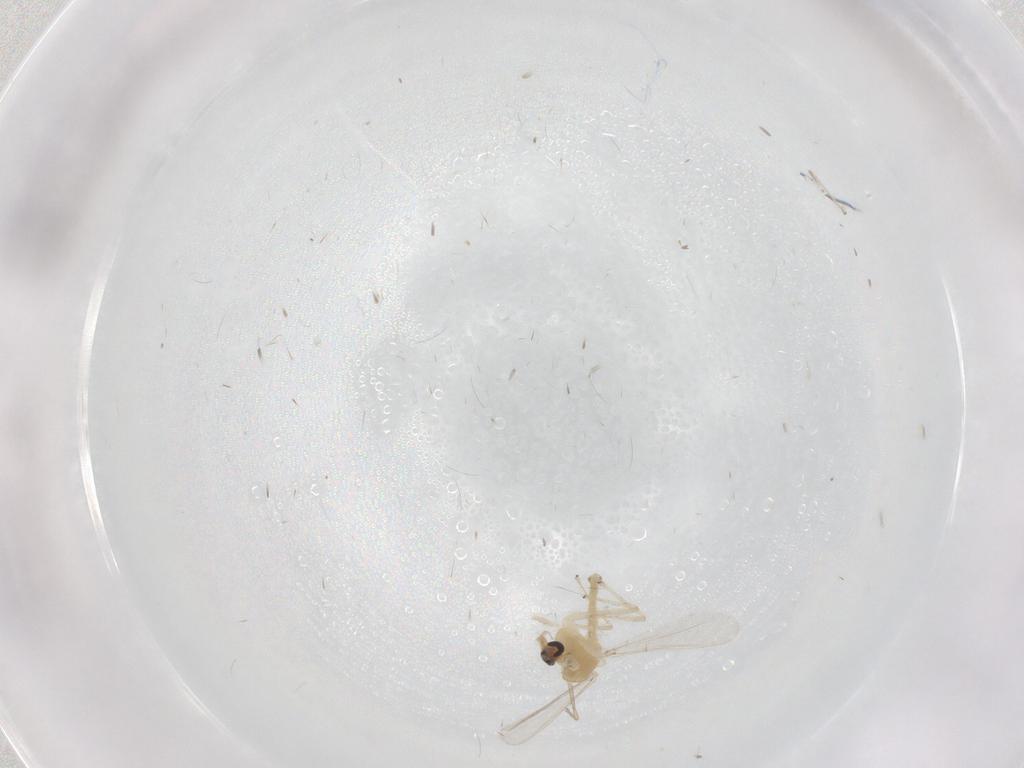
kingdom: Animalia
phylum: Arthropoda
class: Insecta
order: Diptera
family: Chironomidae
